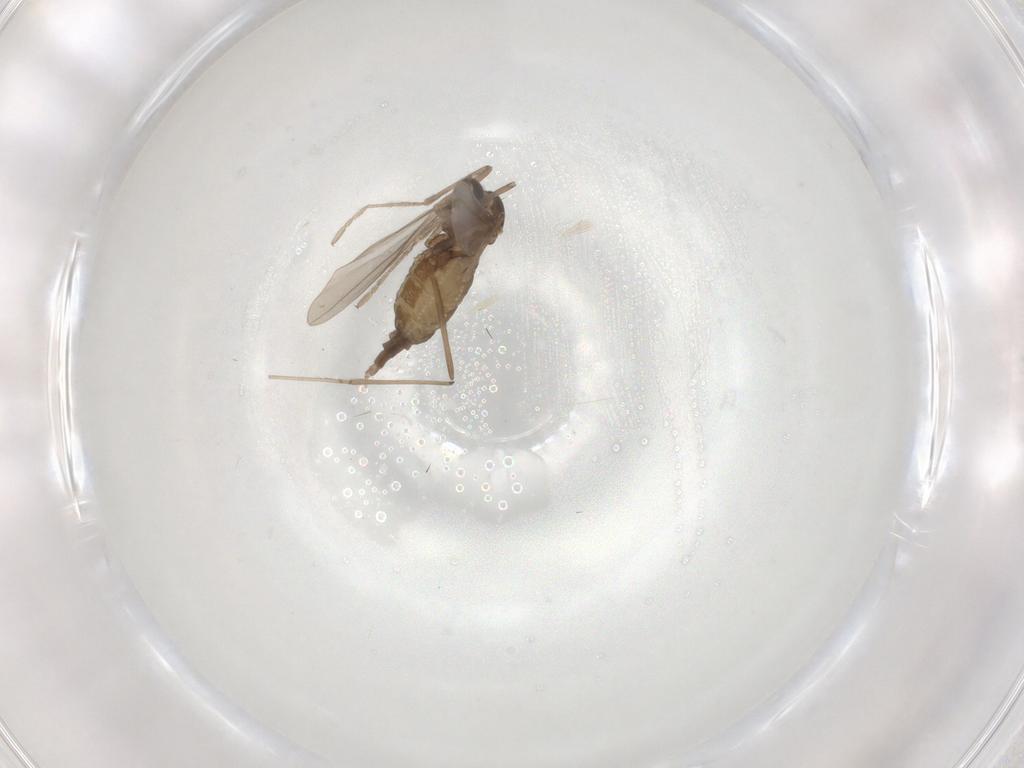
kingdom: Animalia
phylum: Arthropoda
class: Insecta
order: Diptera
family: Cecidomyiidae
